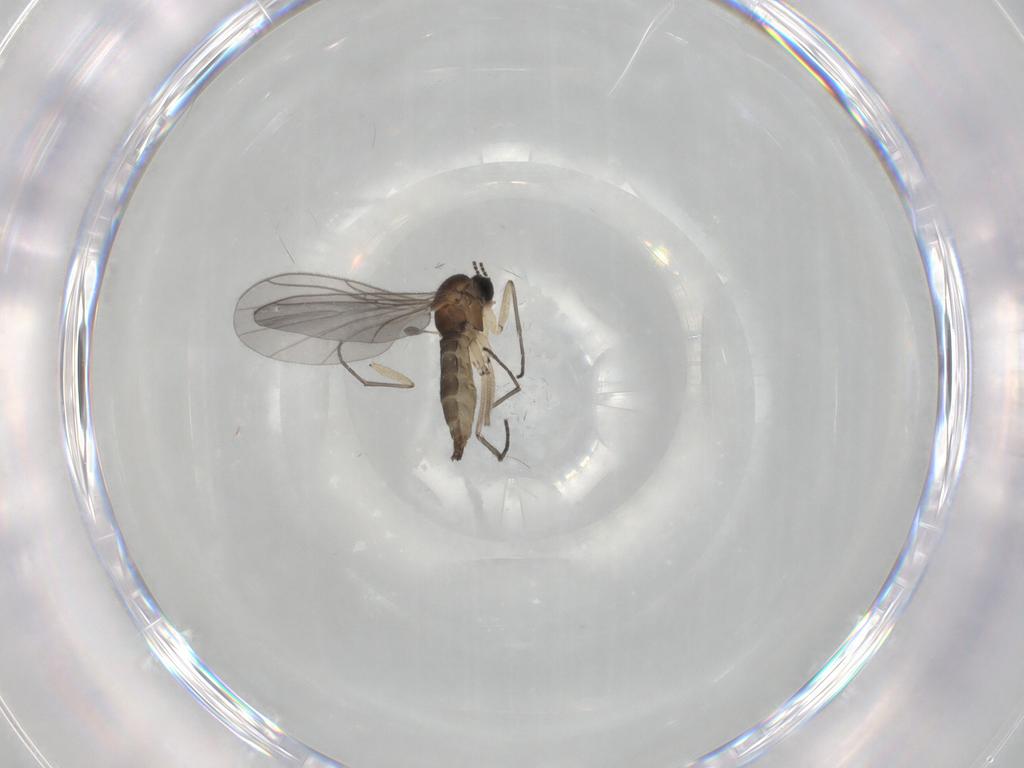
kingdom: Animalia
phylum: Arthropoda
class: Insecta
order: Diptera
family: Sciaridae
